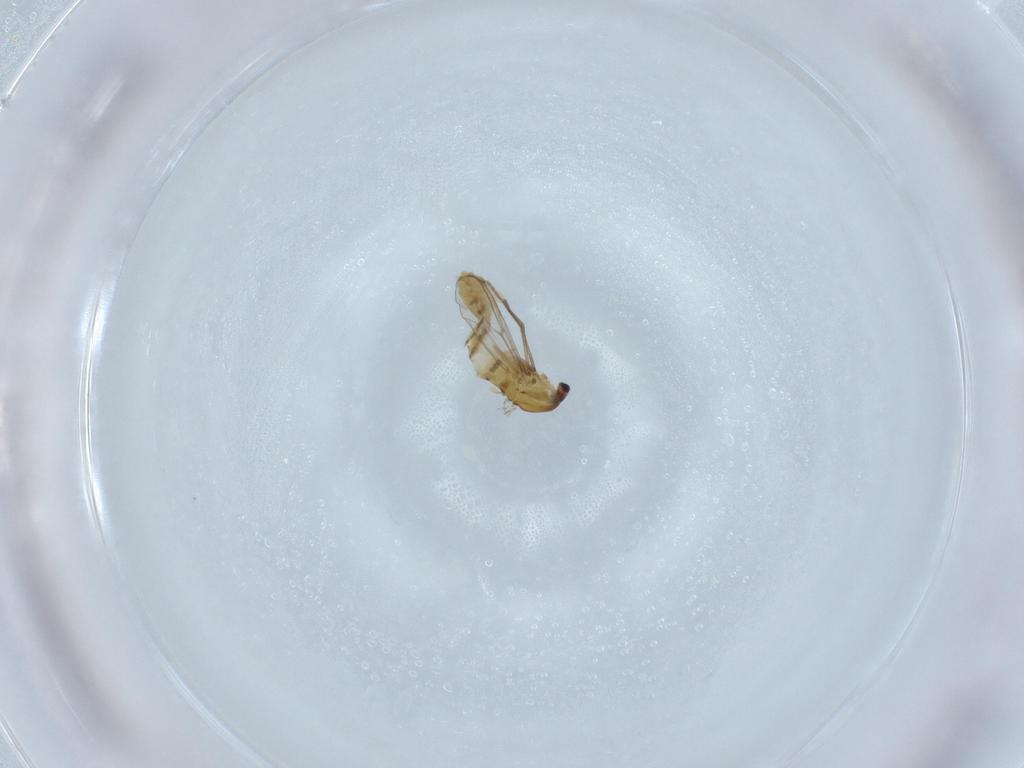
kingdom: Animalia
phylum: Arthropoda
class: Insecta
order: Diptera
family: Chironomidae
